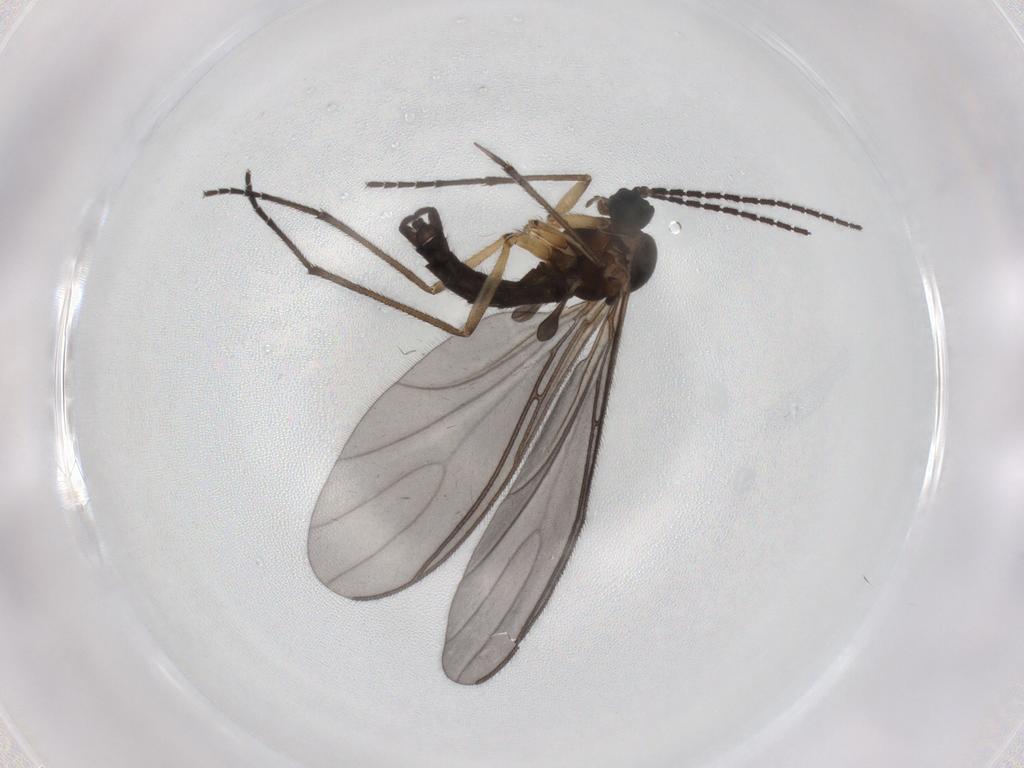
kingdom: Animalia
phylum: Arthropoda
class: Insecta
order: Diptera
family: Sciaridae
